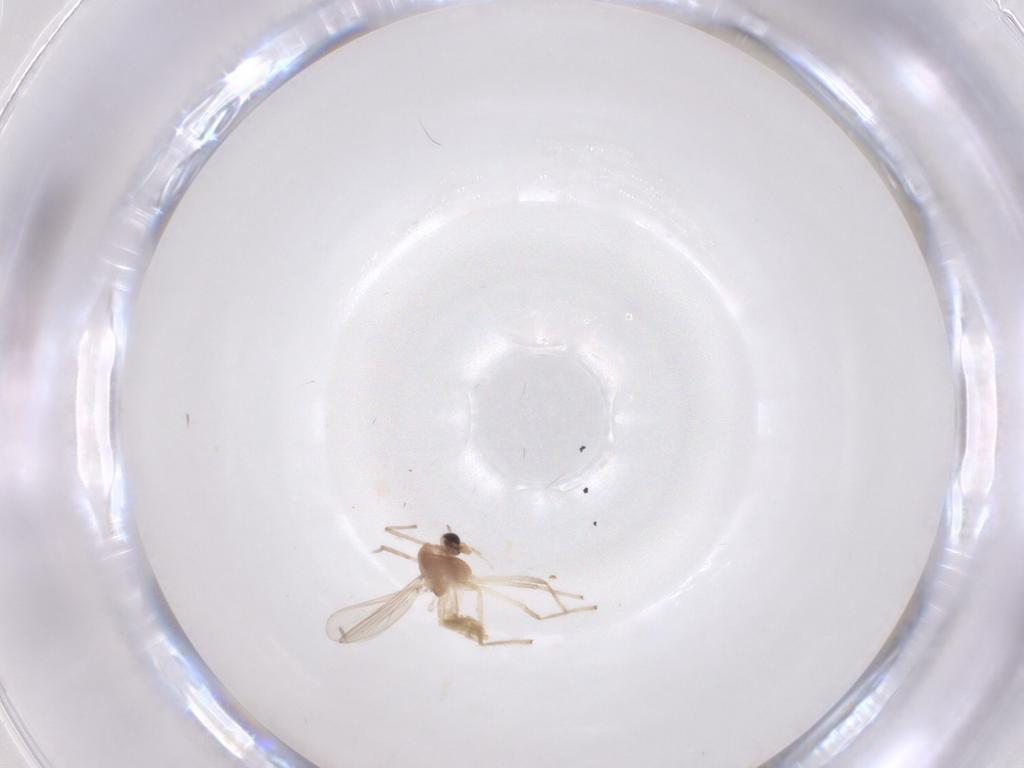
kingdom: Animalia
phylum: Arthropoda
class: Insecta
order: Diptera
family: Chironomidae
